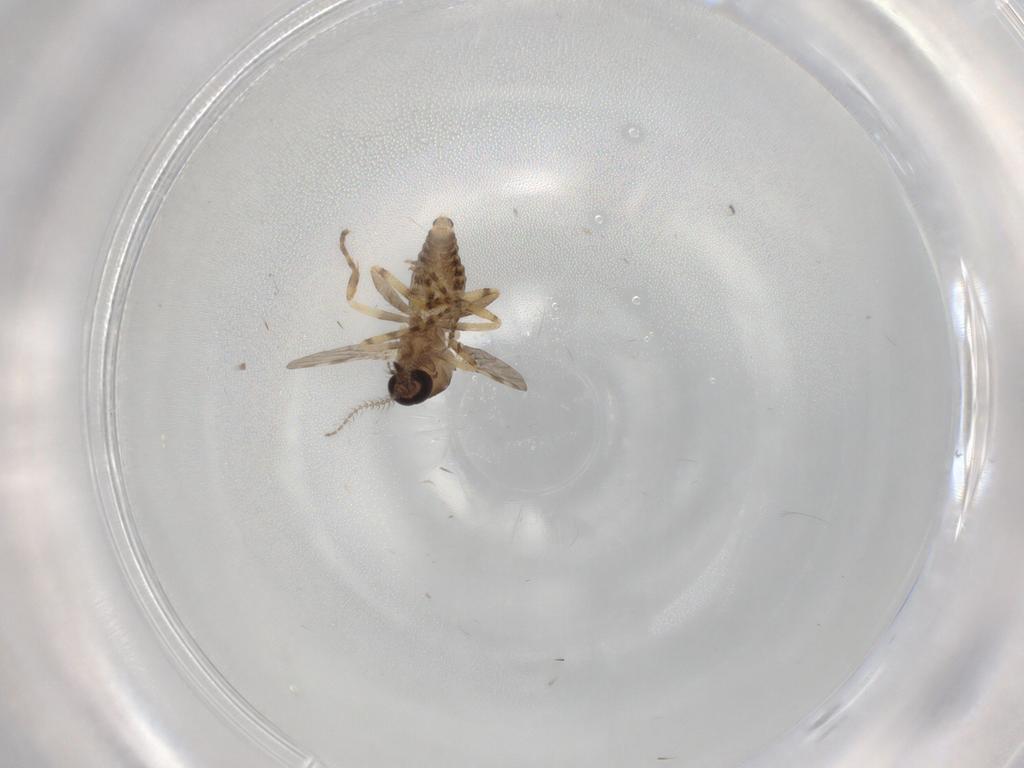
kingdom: Animalia
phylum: Arthropoda
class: Insecta
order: Diptera
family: Ceratopogonidae
